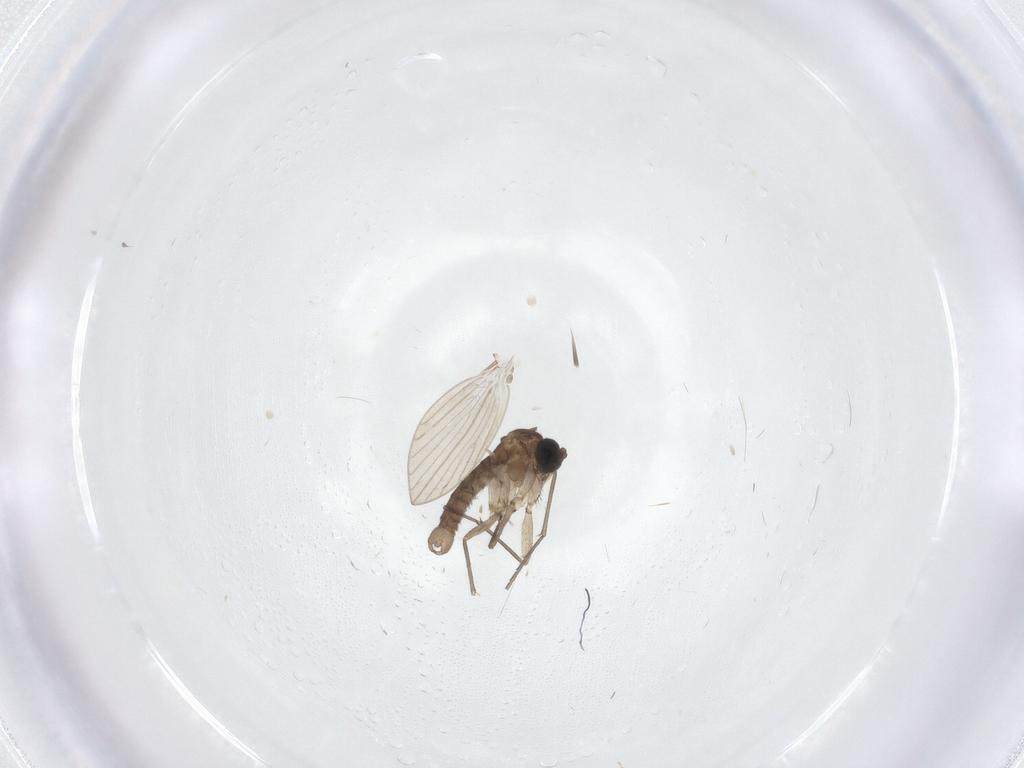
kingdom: Animalia
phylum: Arthropoda
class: Insecta
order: Diptera
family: Sciaridae
